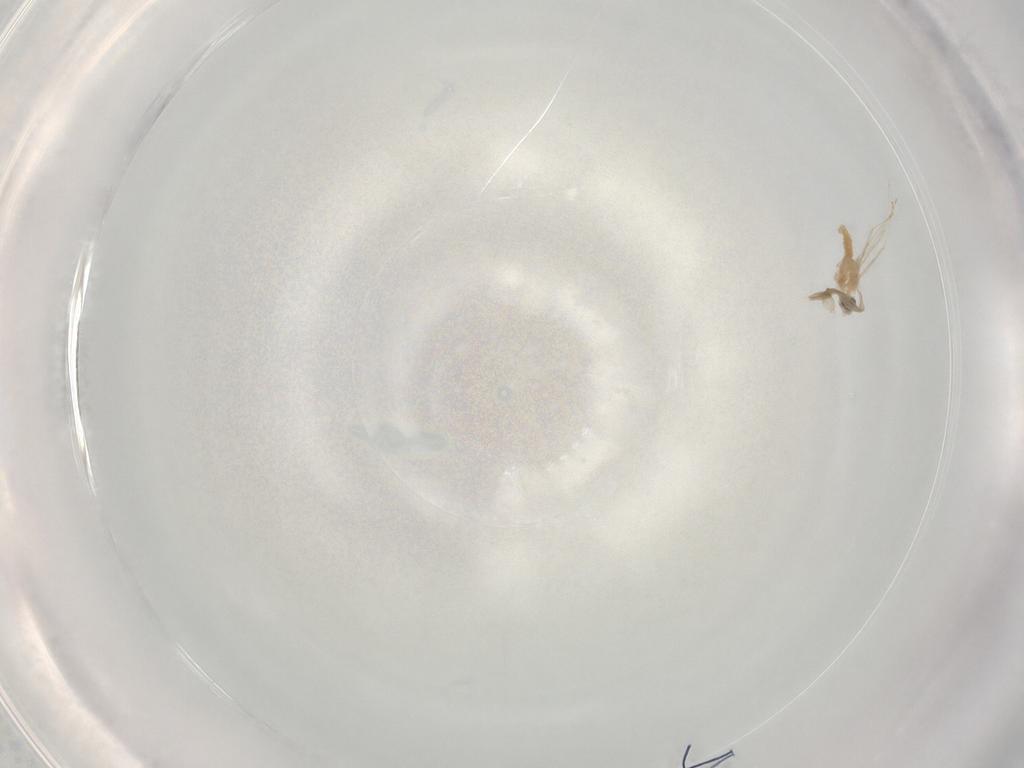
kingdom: Animalia
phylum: Arthropoda
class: Insecta
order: Diptera
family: Cecidomyiidae
